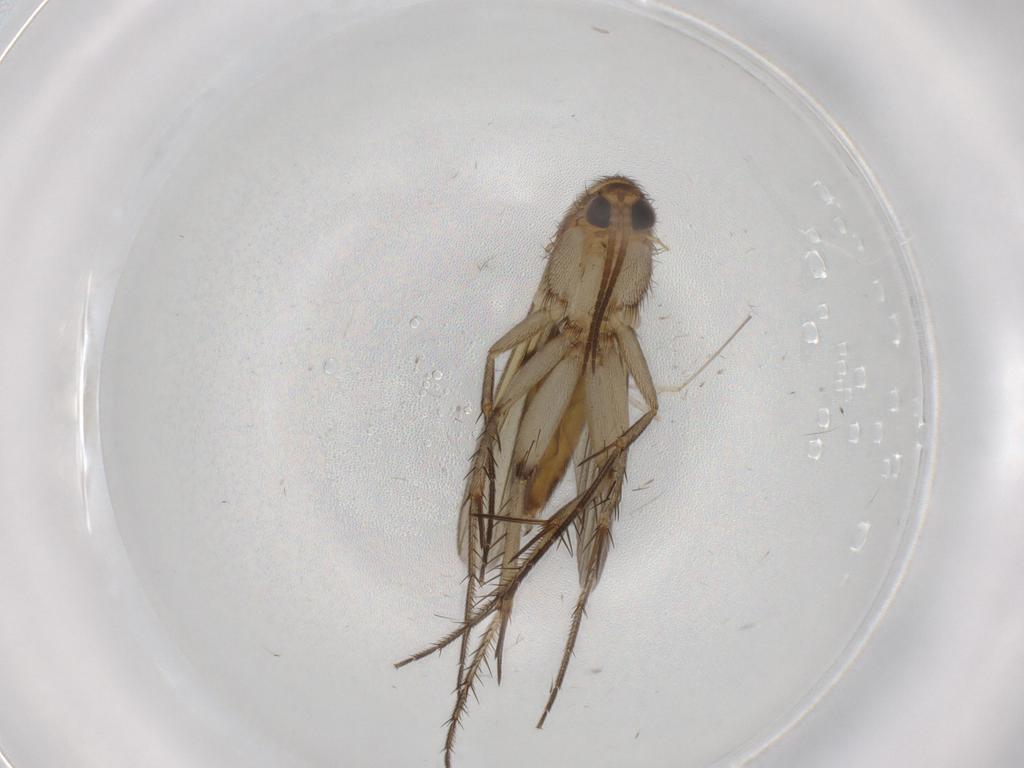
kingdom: Animalia
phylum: Arthropoda
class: Insecta
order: Diptera
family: Mycetophilidae
